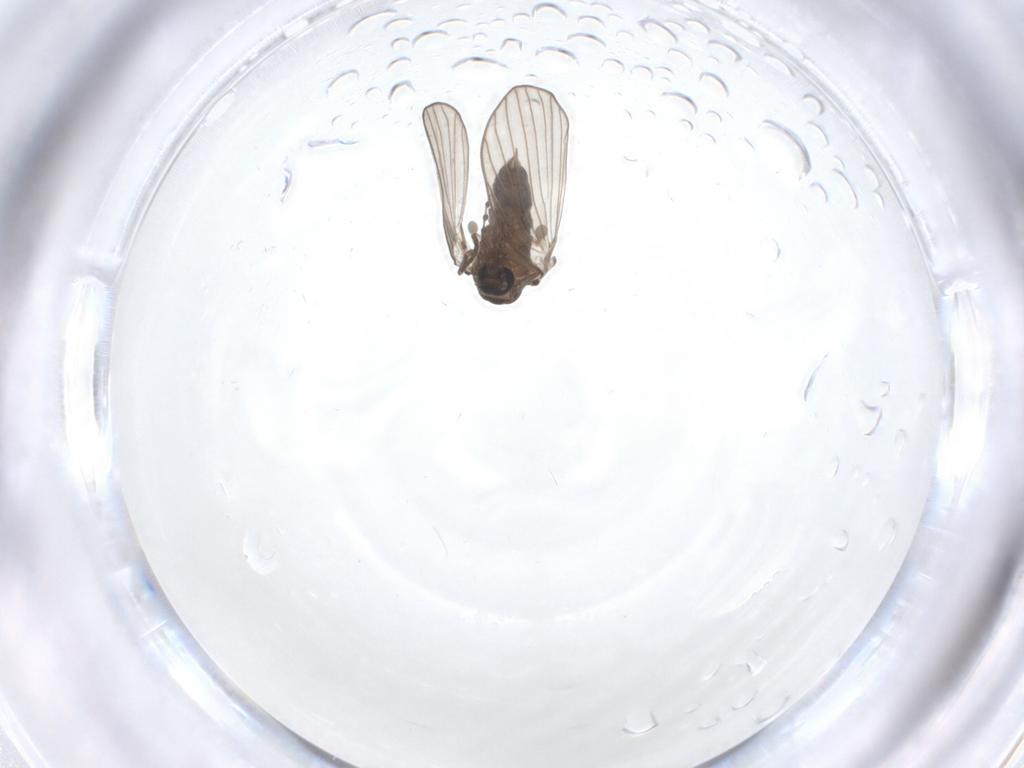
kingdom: Animalia
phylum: Arthropoda
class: Insecta
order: Diptera
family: Psychodidae
